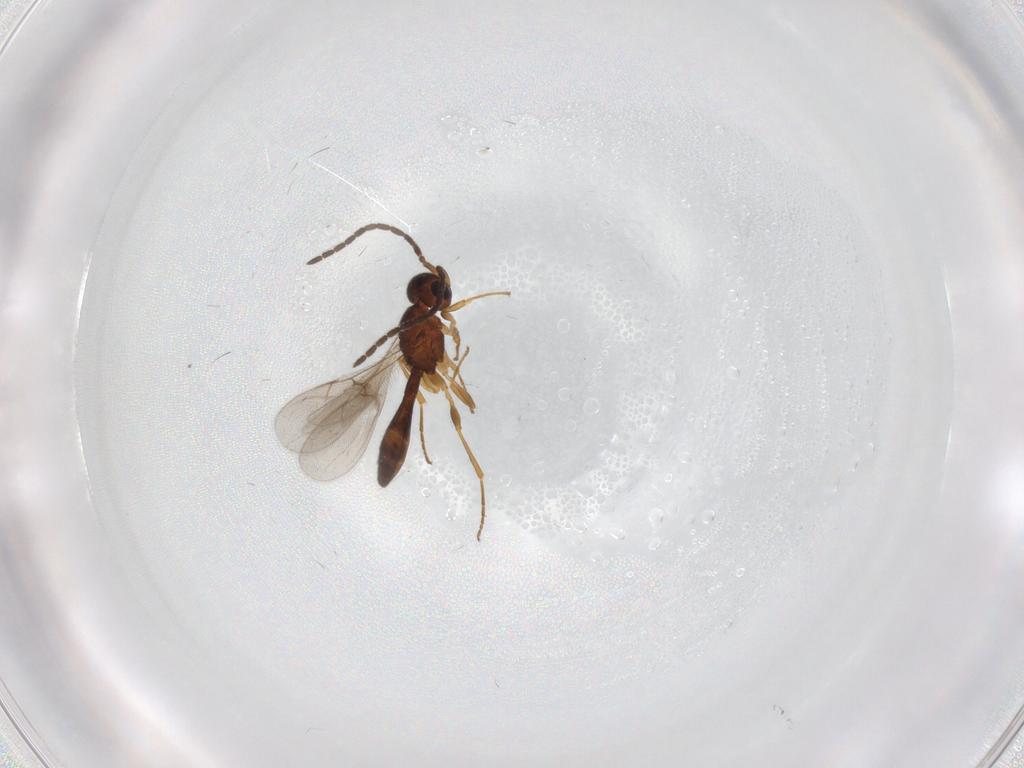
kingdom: Animalia
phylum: Arthropoda
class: Insecta
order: Hymenoptera
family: Scelionidae
